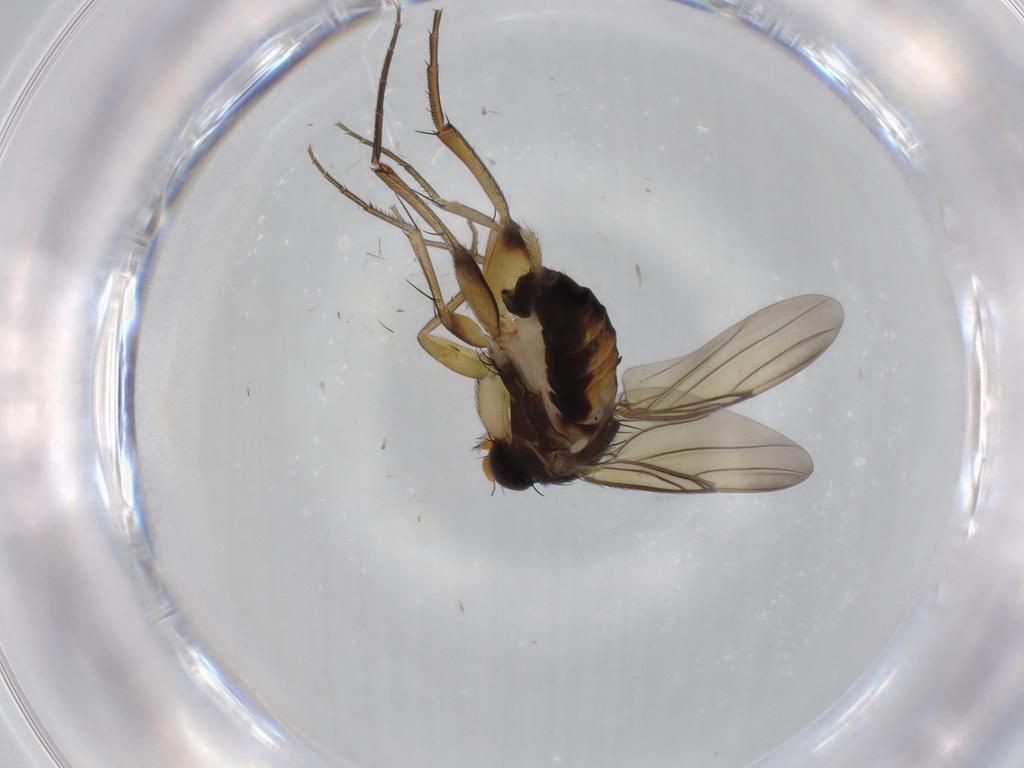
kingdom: Animalia
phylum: Arthropoda
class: Insecta
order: Diptera
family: Phoridae
